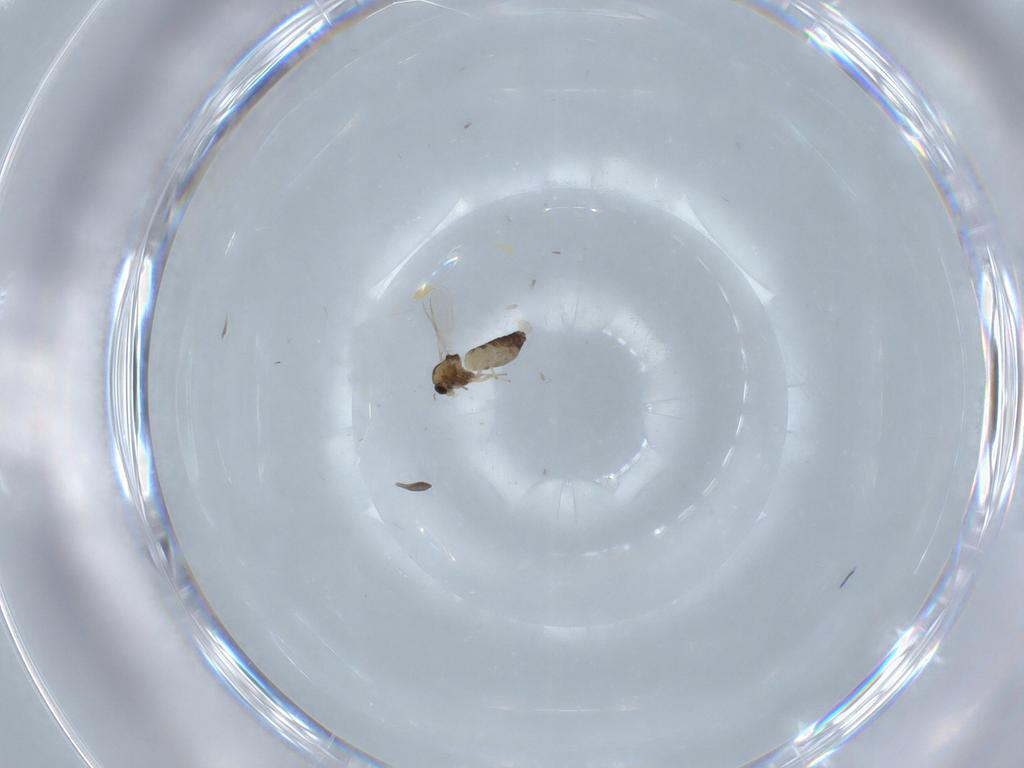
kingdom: Animalia
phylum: Arthropoda
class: Insecta
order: Diptera
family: Chironomidae
